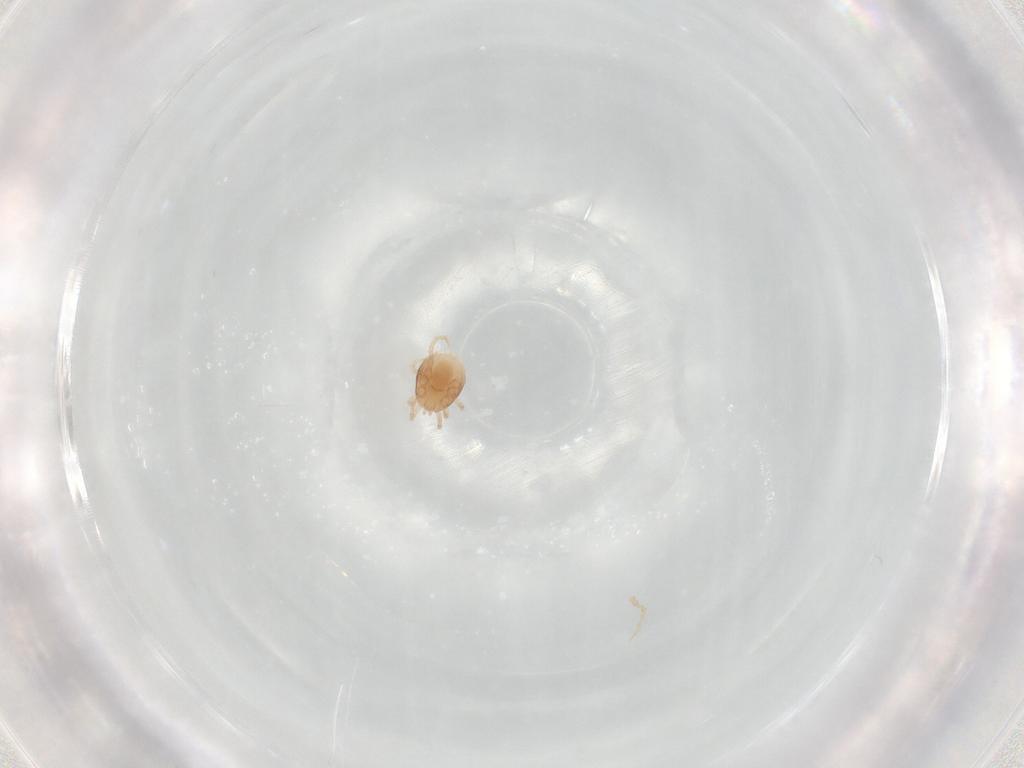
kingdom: Animalia
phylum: Arthropoda
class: Arachnida
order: Mesostigmata
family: Laelapidae
